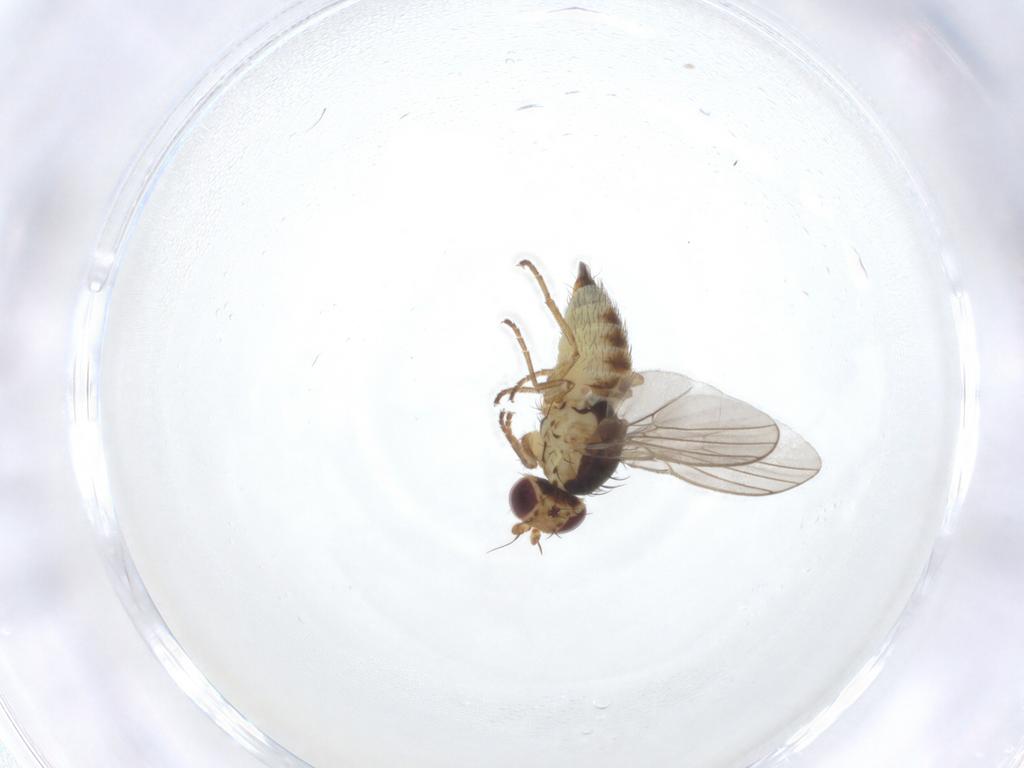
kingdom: Animalia
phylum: Arthropoda
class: Insecta
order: Diptera
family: Agromyzidae
